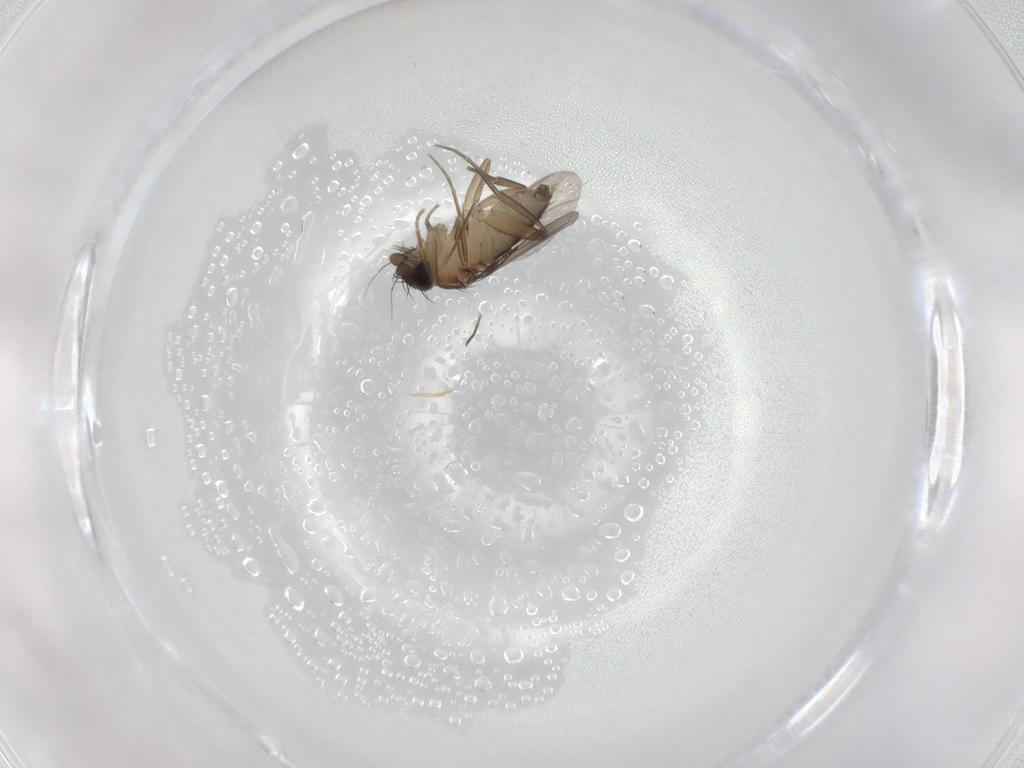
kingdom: Animalia
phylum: Arthropoda
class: Insecta
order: Diptera
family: Phoridae
